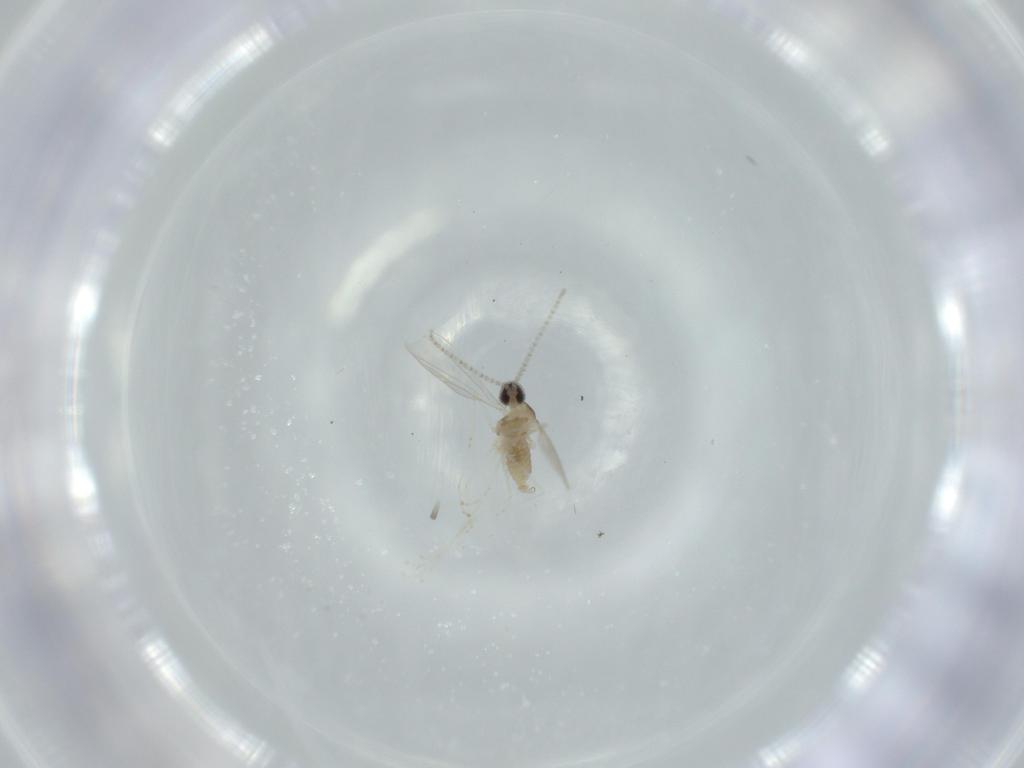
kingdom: Animalia
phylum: Arthropoda
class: Insecta
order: Diptera
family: Cecidomyiidae
